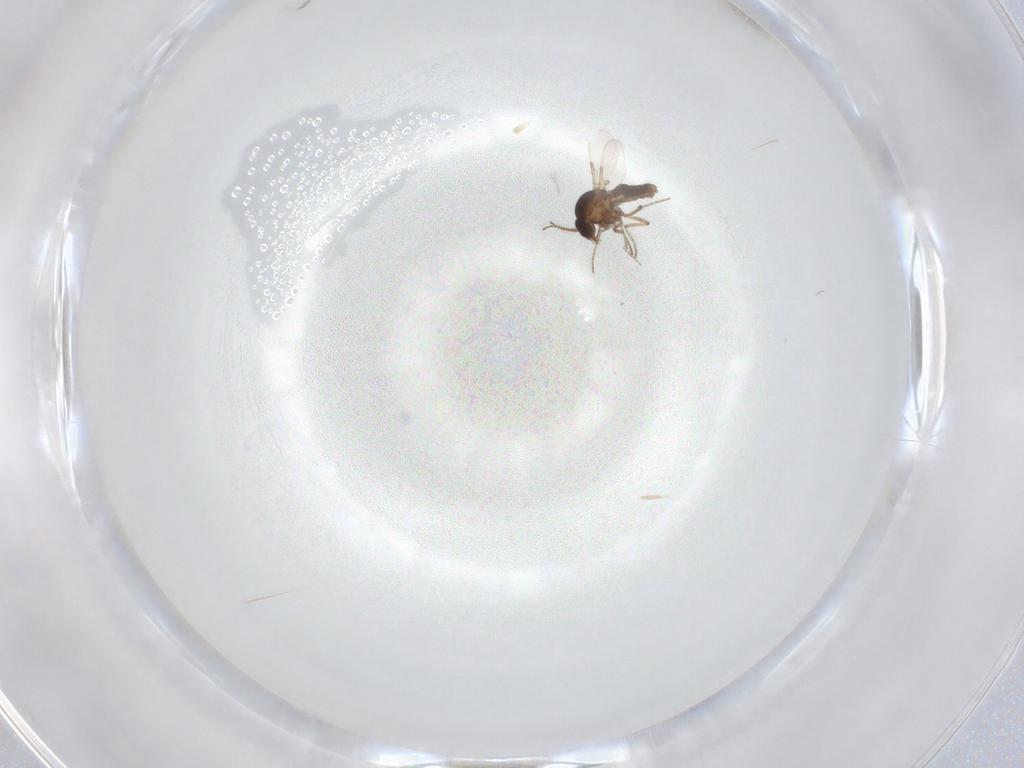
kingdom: Animalia
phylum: Arthropoda
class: Insecta
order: Diptera
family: Ceratopogonidae
